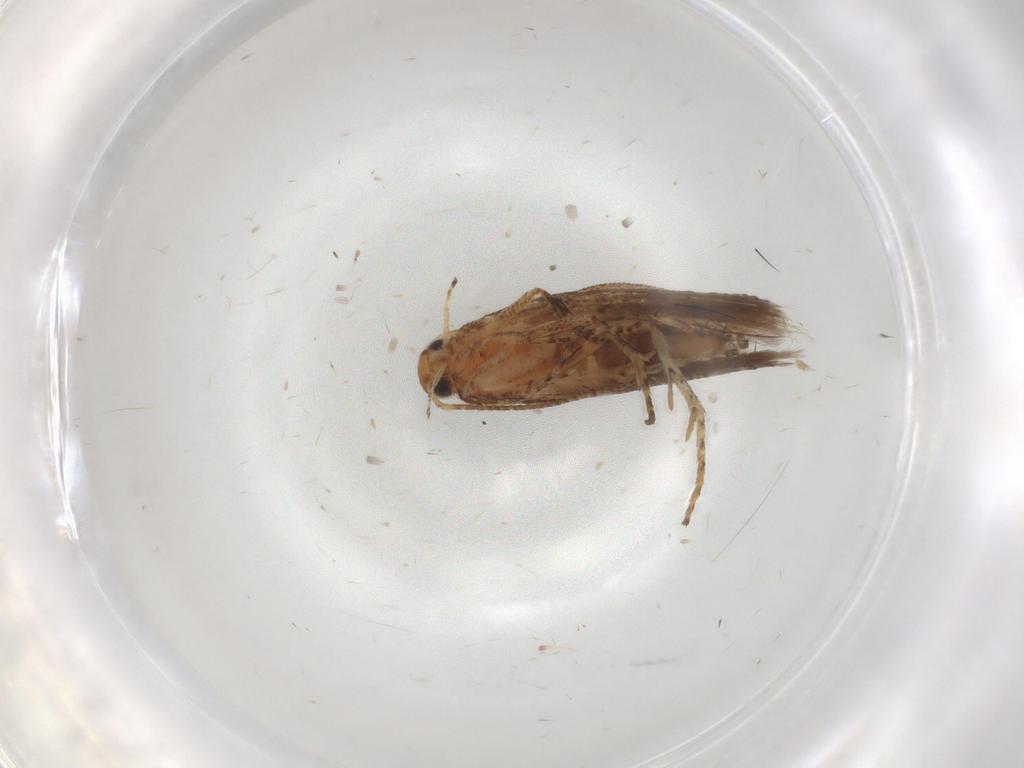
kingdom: Animalia
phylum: Arthropoda
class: Insecta
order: Lepidoptera
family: Gelechiidae
